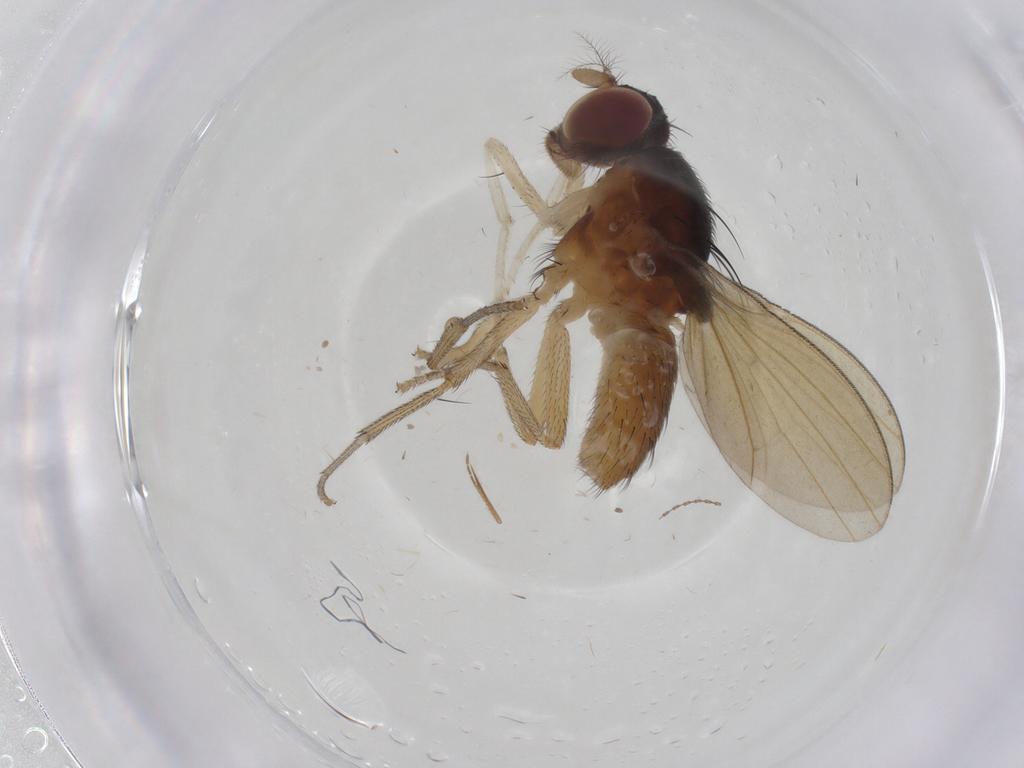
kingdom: Animalia
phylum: Arthropoda
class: Insecta
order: Diptera
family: Lauxaniidae
